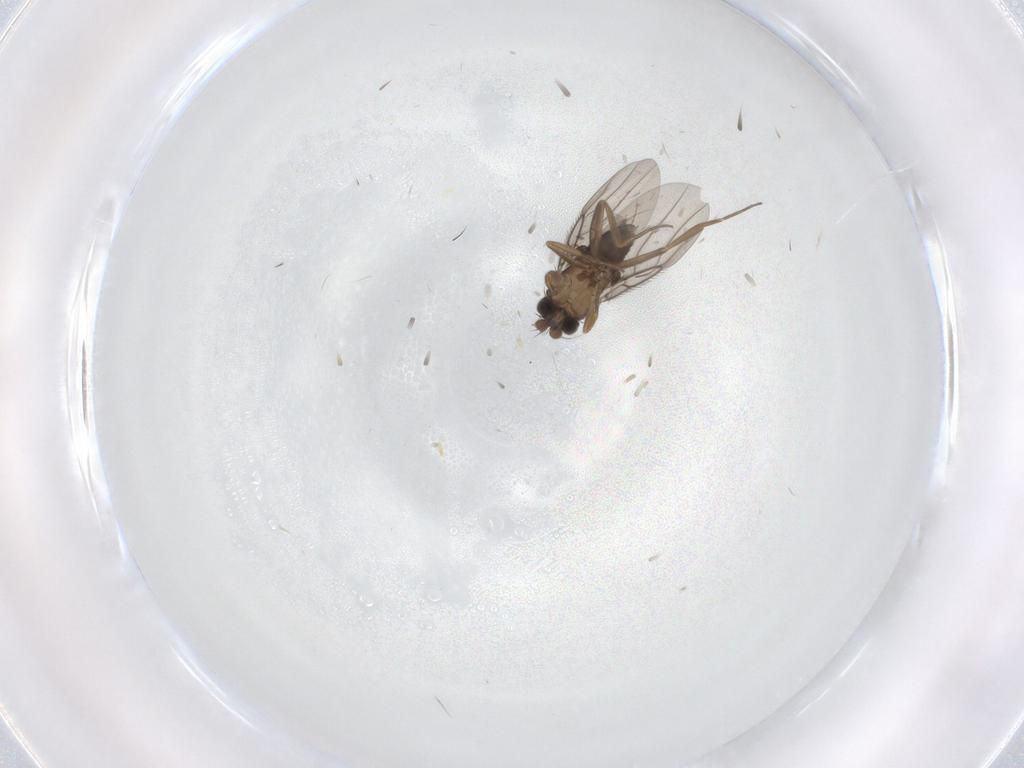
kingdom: Animalia
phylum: Arthropoda
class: Insecta
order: Diptera
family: Phoridae
